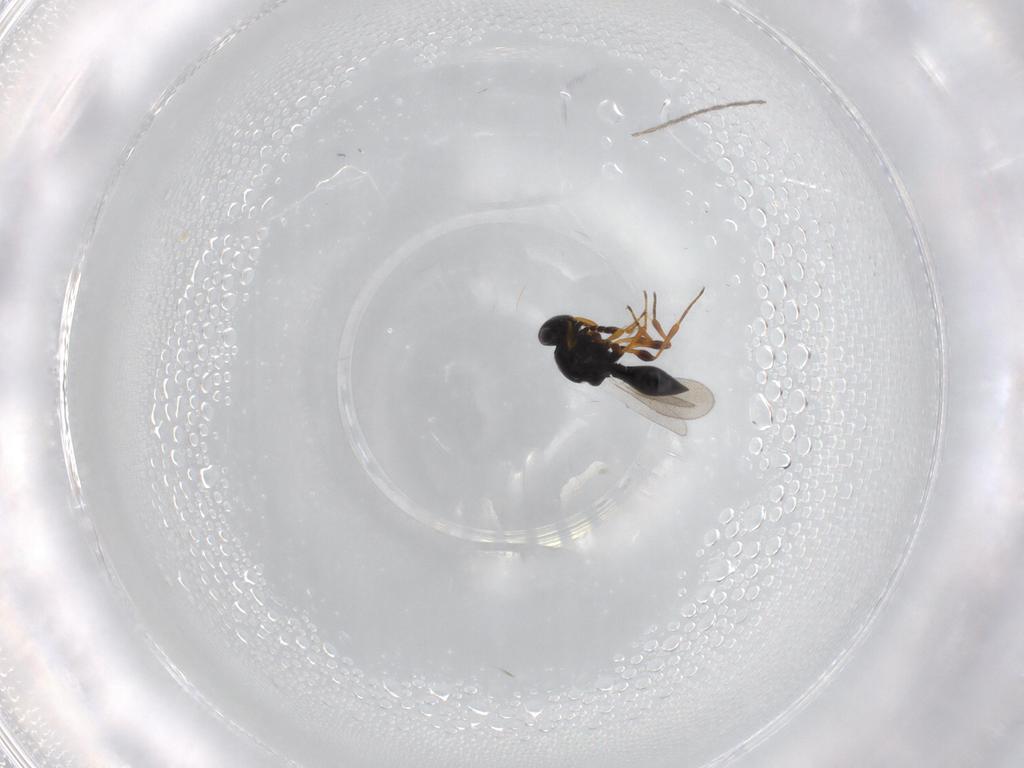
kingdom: Animalia
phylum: Arthropoda
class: Insecta
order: Hymenoptera
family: Platygastridae
